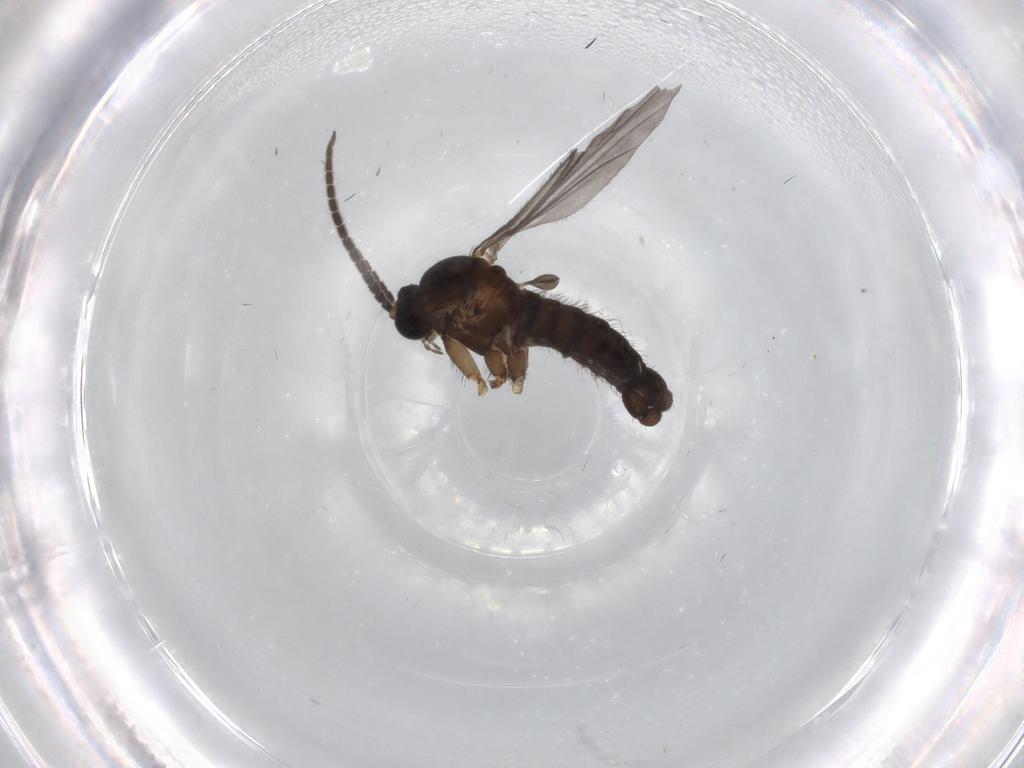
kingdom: Animalia
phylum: Arthropoda
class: Insecta
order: Diptera
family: Sciaridae
